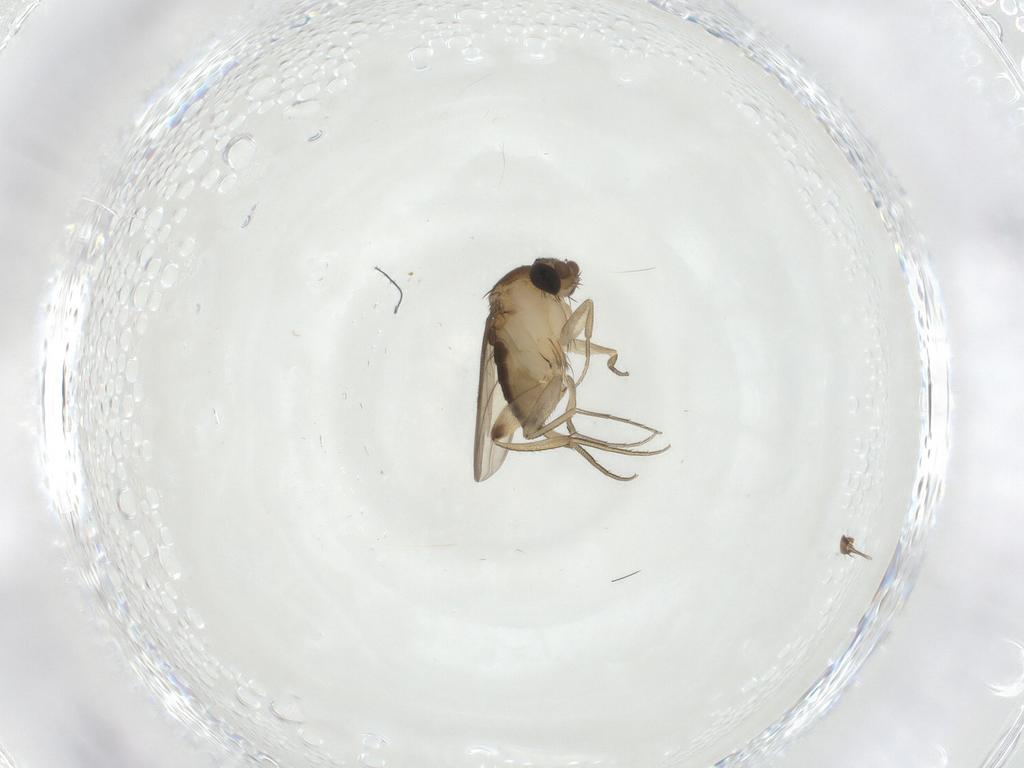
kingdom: Animalia
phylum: Arthropoda
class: Insecta
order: Diptera
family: Phoridae
